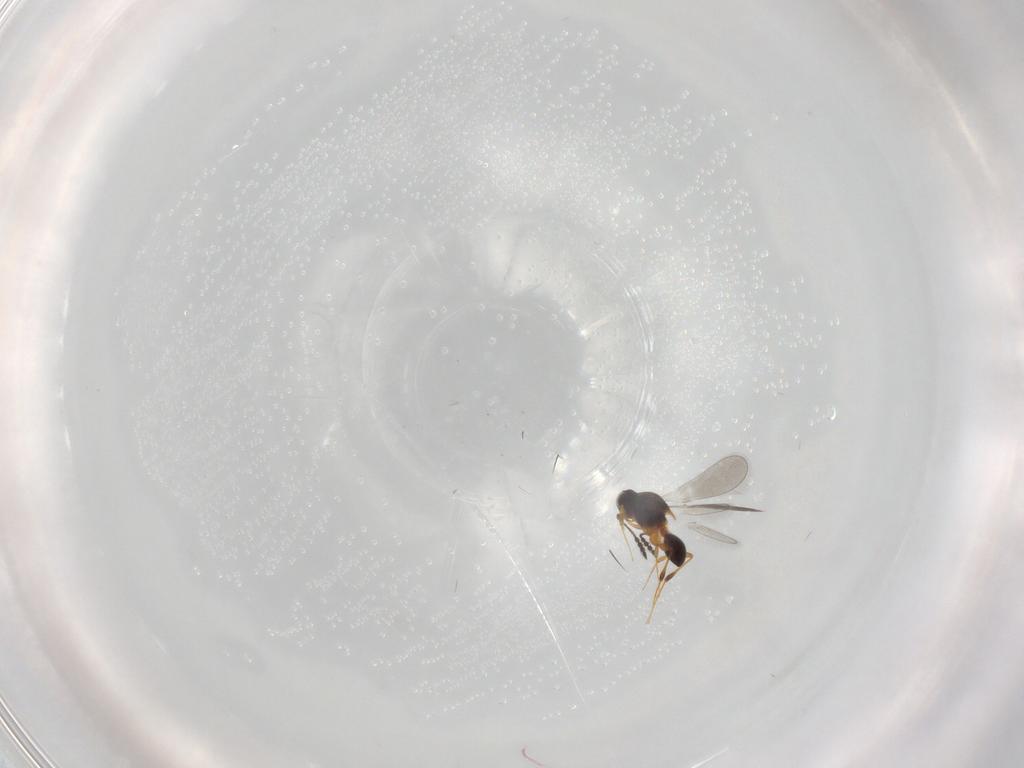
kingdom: Animalia
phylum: Arthropoda
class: Insecta
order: Hymenoptera
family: Platygastridae
